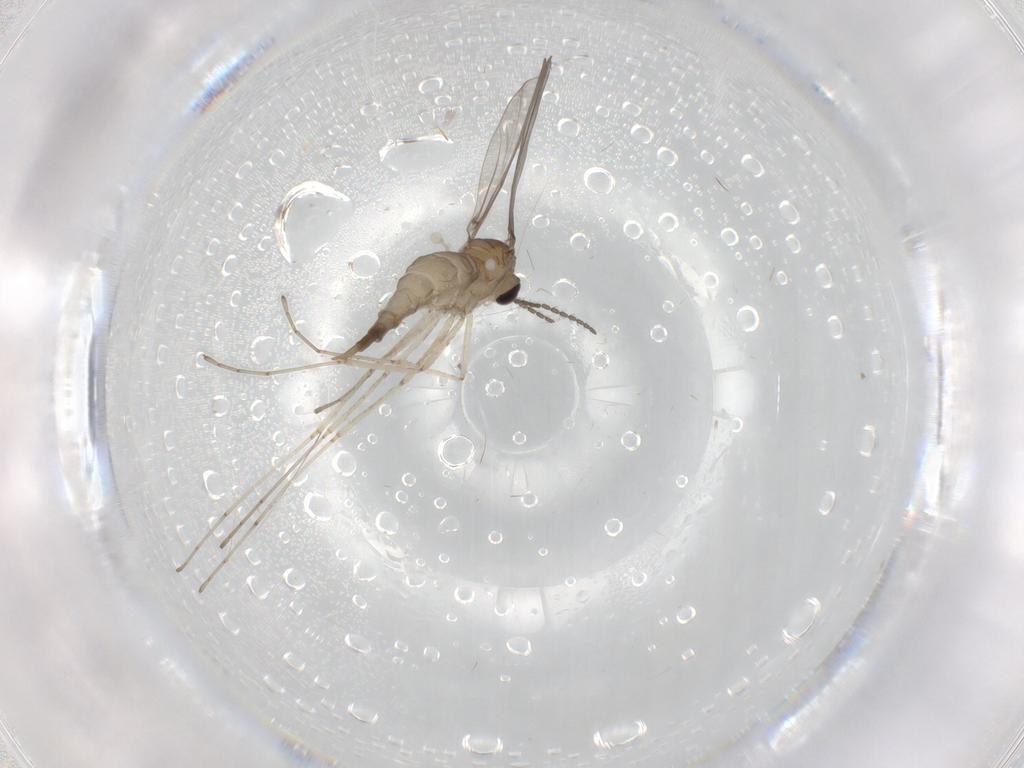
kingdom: Animalia
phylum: Arthropoda
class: Insecta
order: Diptera
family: Cecidomyiidae
